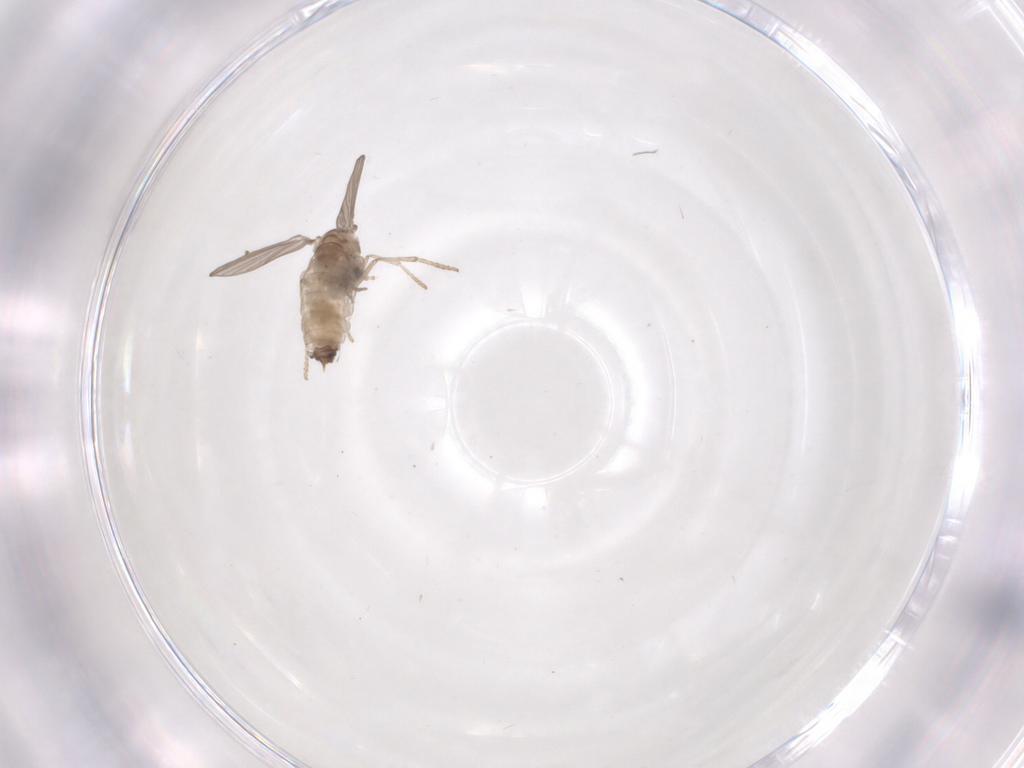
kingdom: Animalia
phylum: Arthropoda
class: Insecta
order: Diptera
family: Psychodidae
